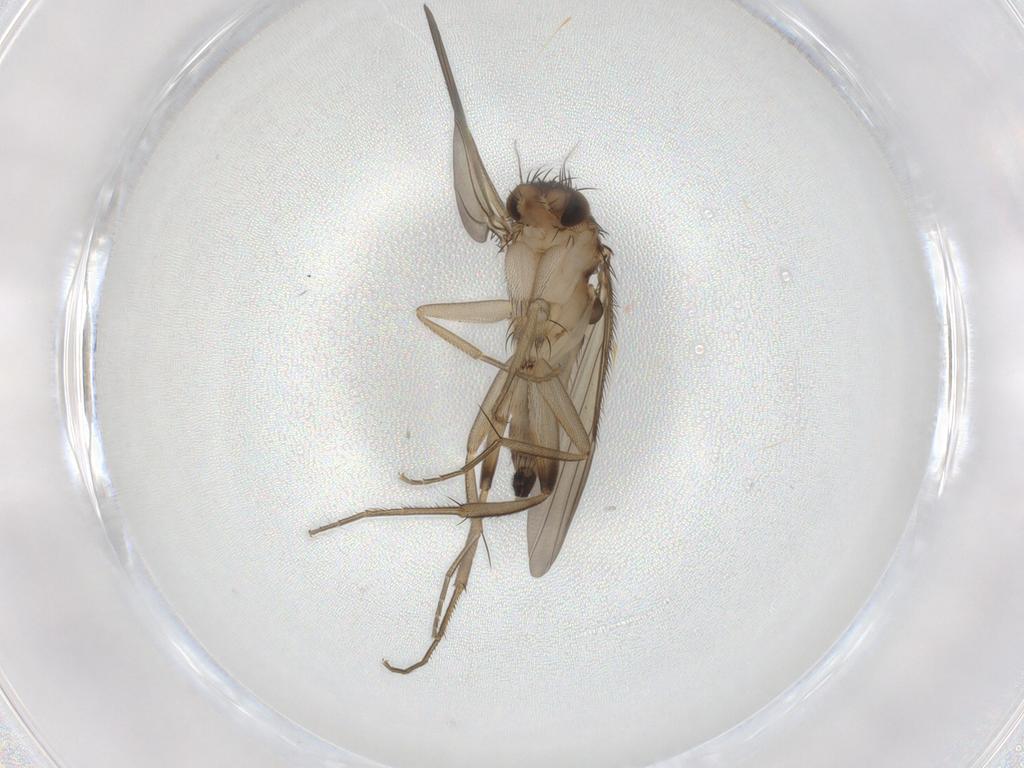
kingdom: Animalia
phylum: Arthropoda
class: Insecta
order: Diptera
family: Phoridae
